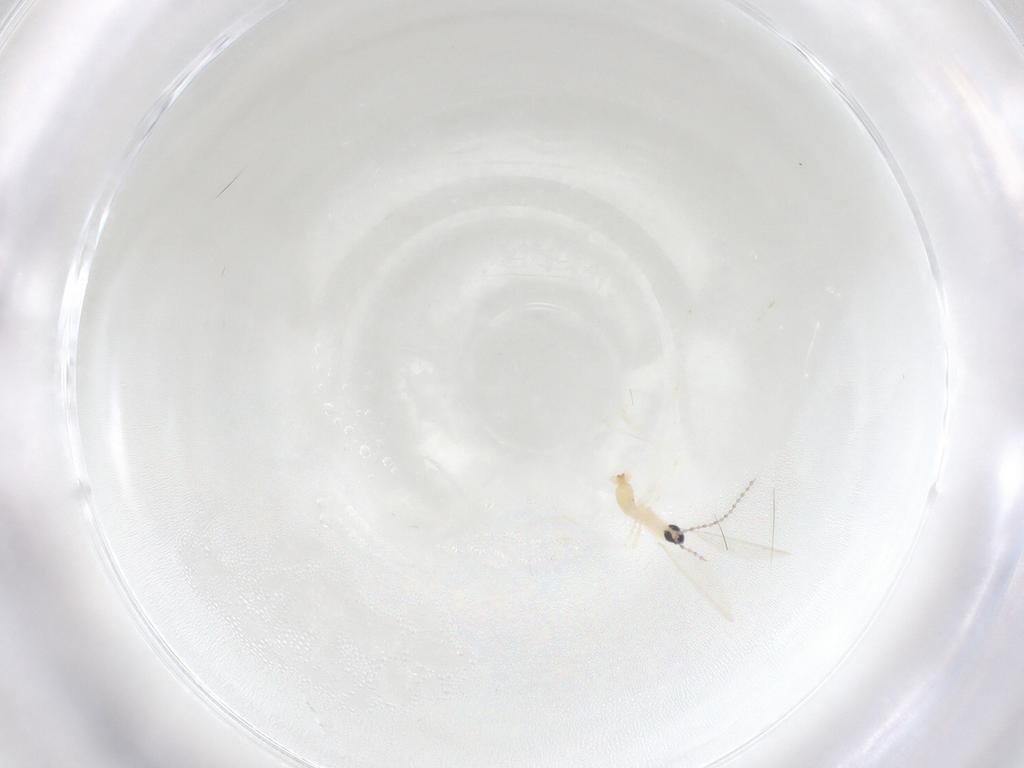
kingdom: Animalia
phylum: Arthropoda
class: Insecta
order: Diptera
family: Cecidomyiidae
